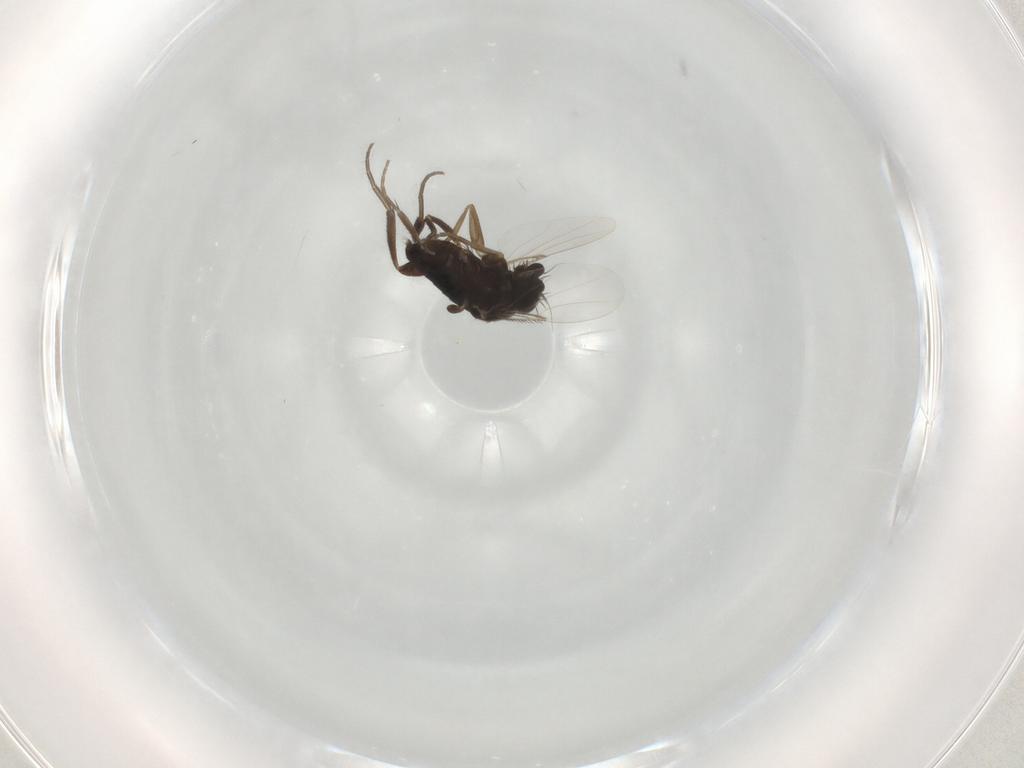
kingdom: Animalia
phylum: Arthropoda
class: Insecta
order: Diptera
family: Phoridae
